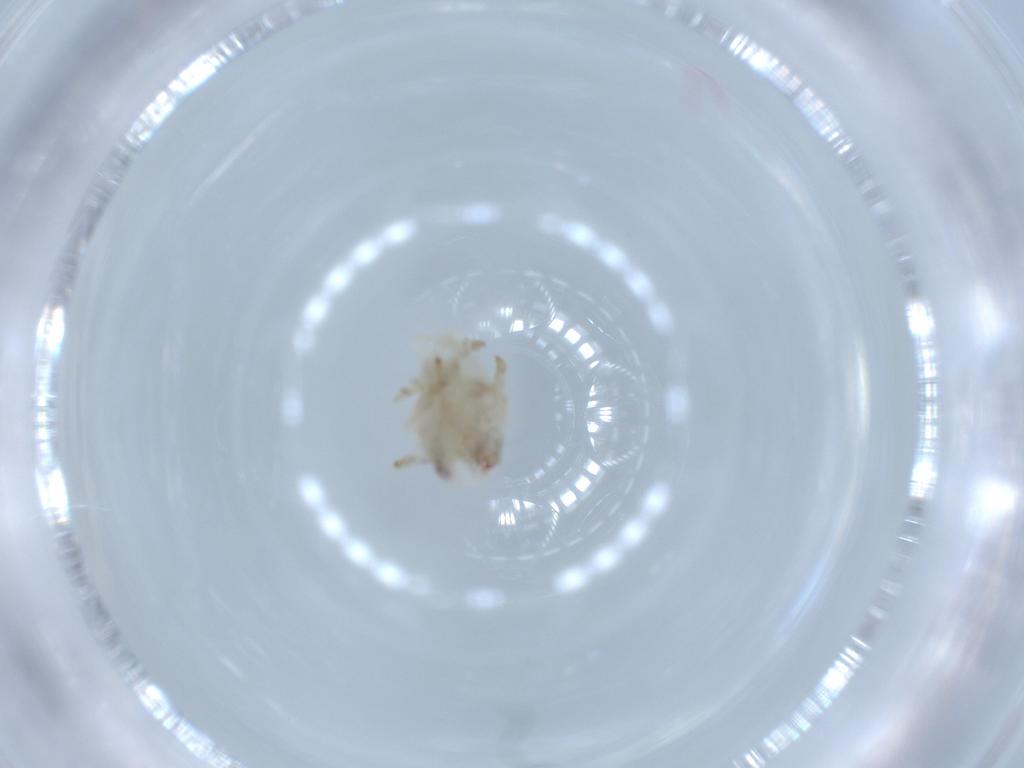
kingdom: Animalia
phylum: Arthropoda
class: Insecta
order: Hemiptera
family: Acanaloniidae
